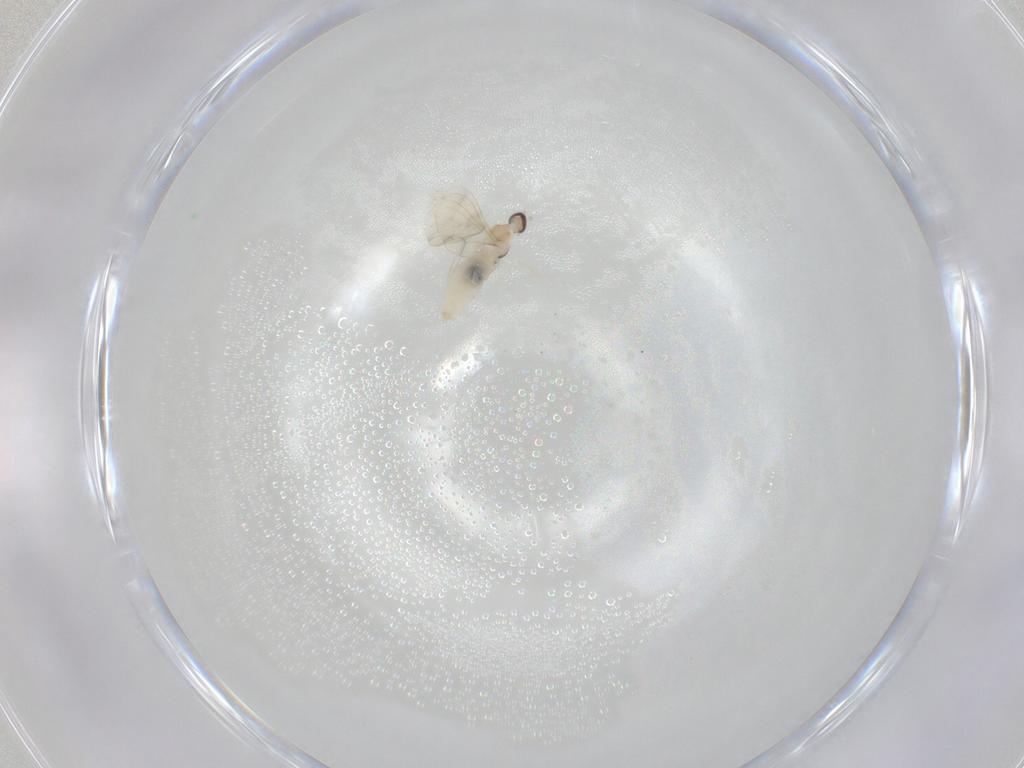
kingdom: Animalia
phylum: Arthropoda
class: Insecta
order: Diptera
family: Cecidomyiidae
